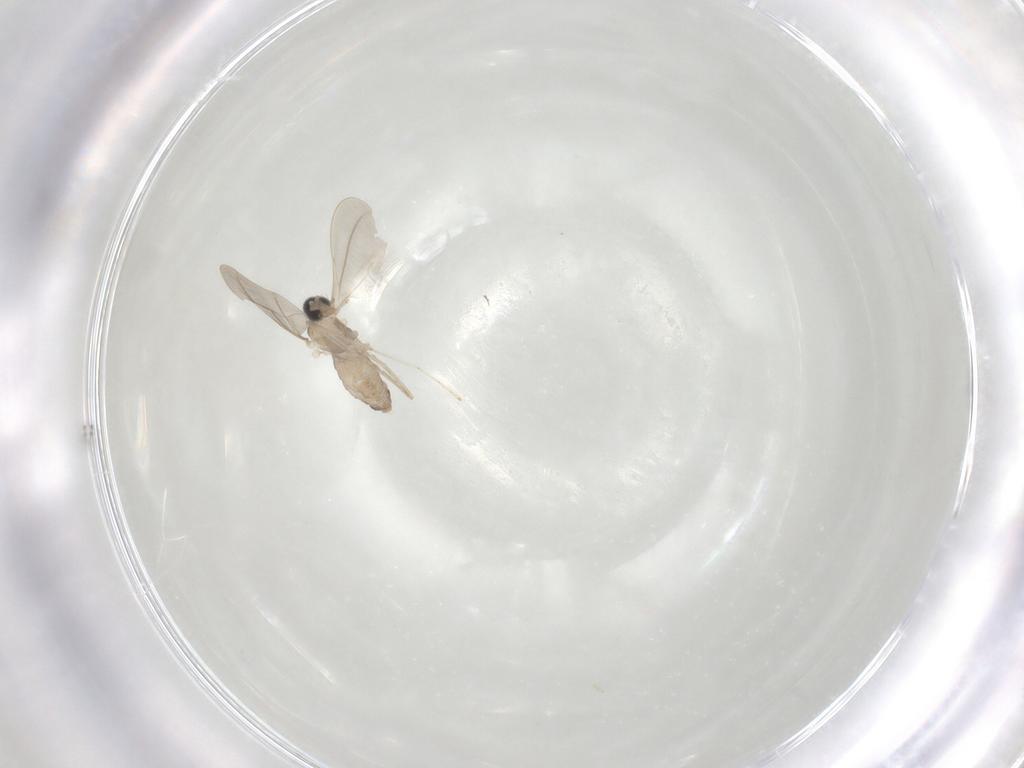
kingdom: Animalia
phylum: Arthropoda
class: Insecta
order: Diptera
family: Cecidomyiidae
